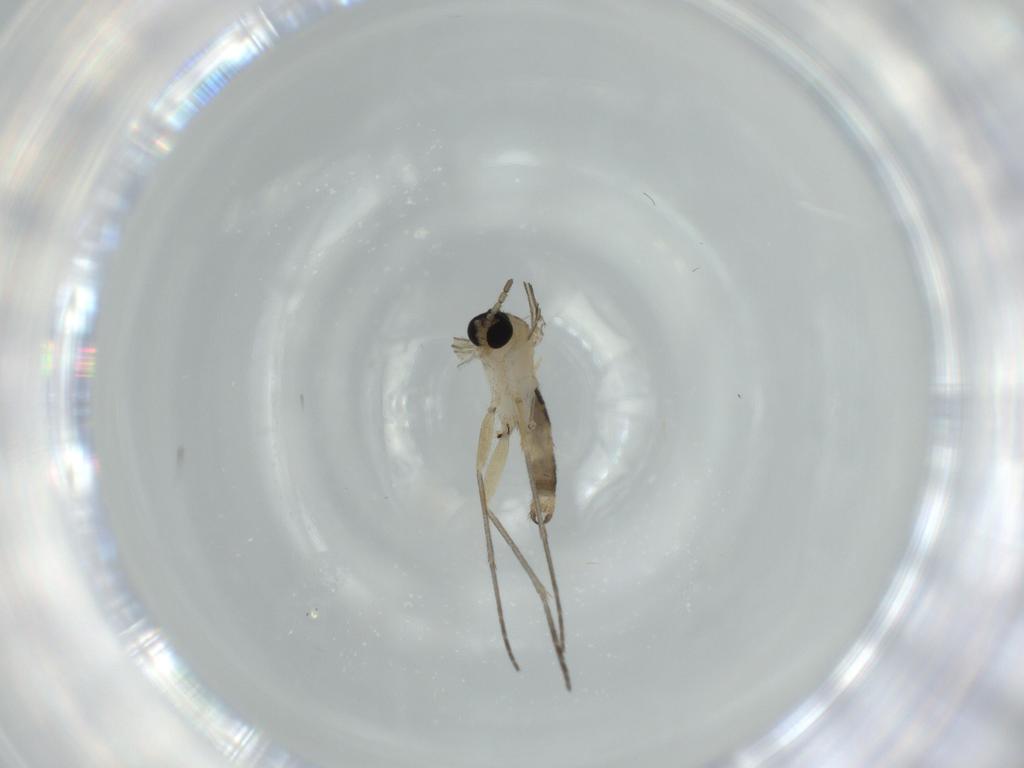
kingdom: Animalia
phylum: Arthropoda
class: Insecta
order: Diptera
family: Sciaridae
